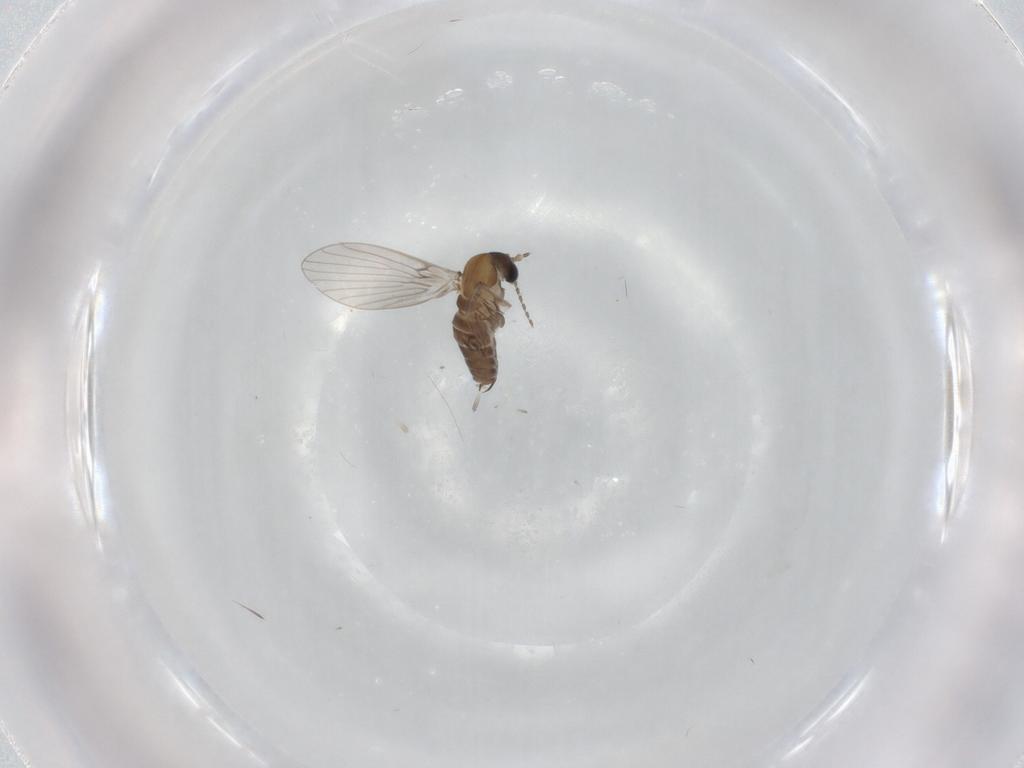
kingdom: Animalia
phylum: Arthropoda
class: Insecta
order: Diptera
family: Psychodidae
